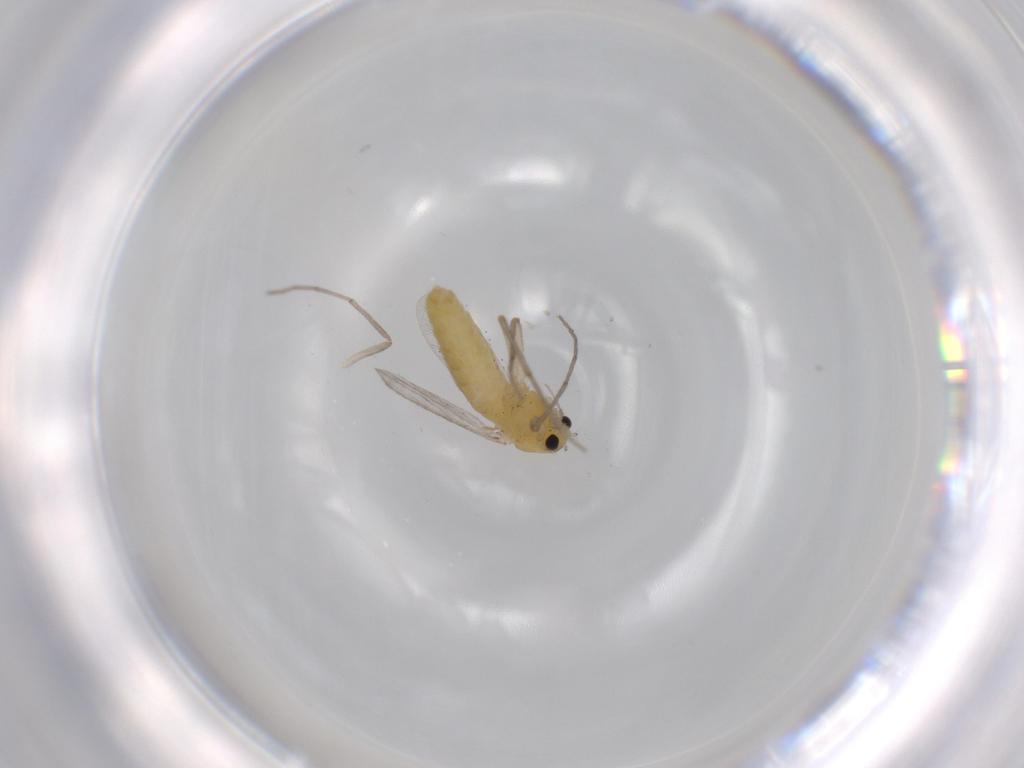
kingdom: Animalia
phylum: Arthropoda
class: Insecta
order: Diptera
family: Chironomidae
